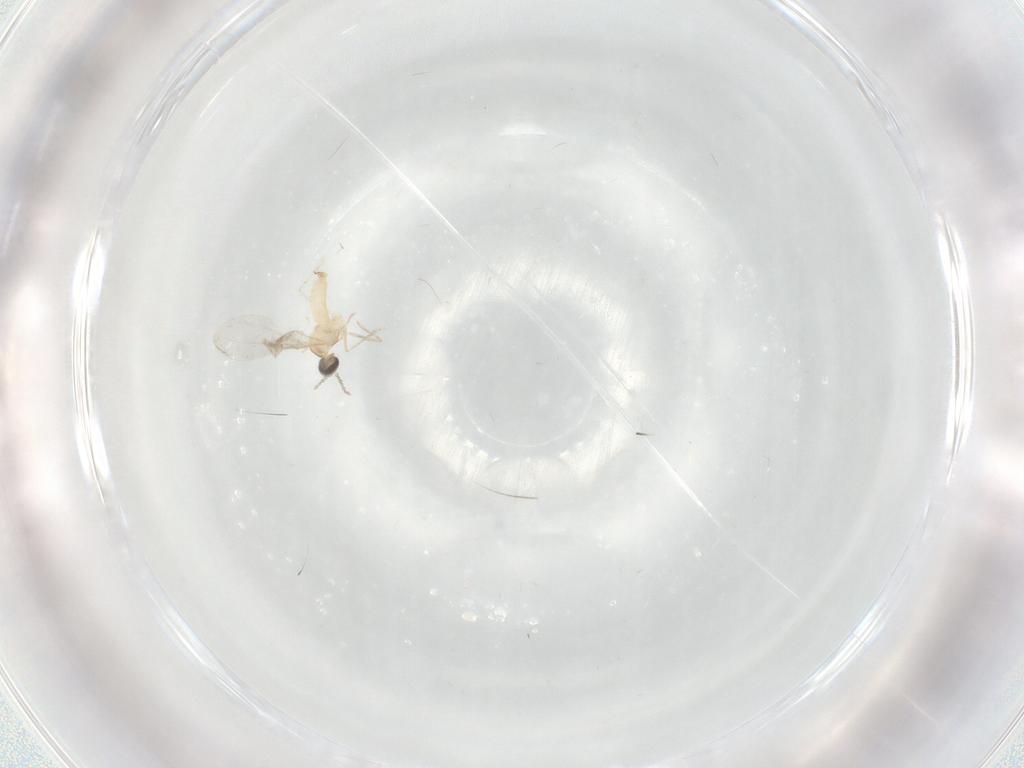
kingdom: Animalia
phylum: Arthropoda
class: Insecta
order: Diptera
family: Cecidomyiidae
